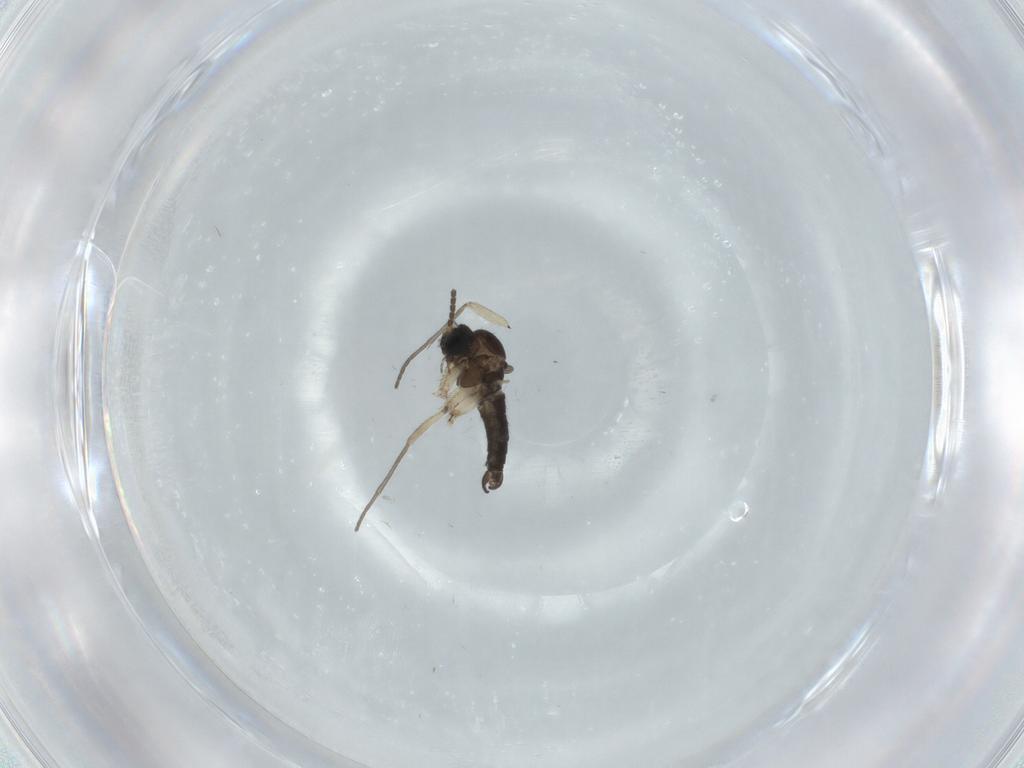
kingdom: Animalia
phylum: Arthropoda
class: Insecta
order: Diptera
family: Sciaridae
